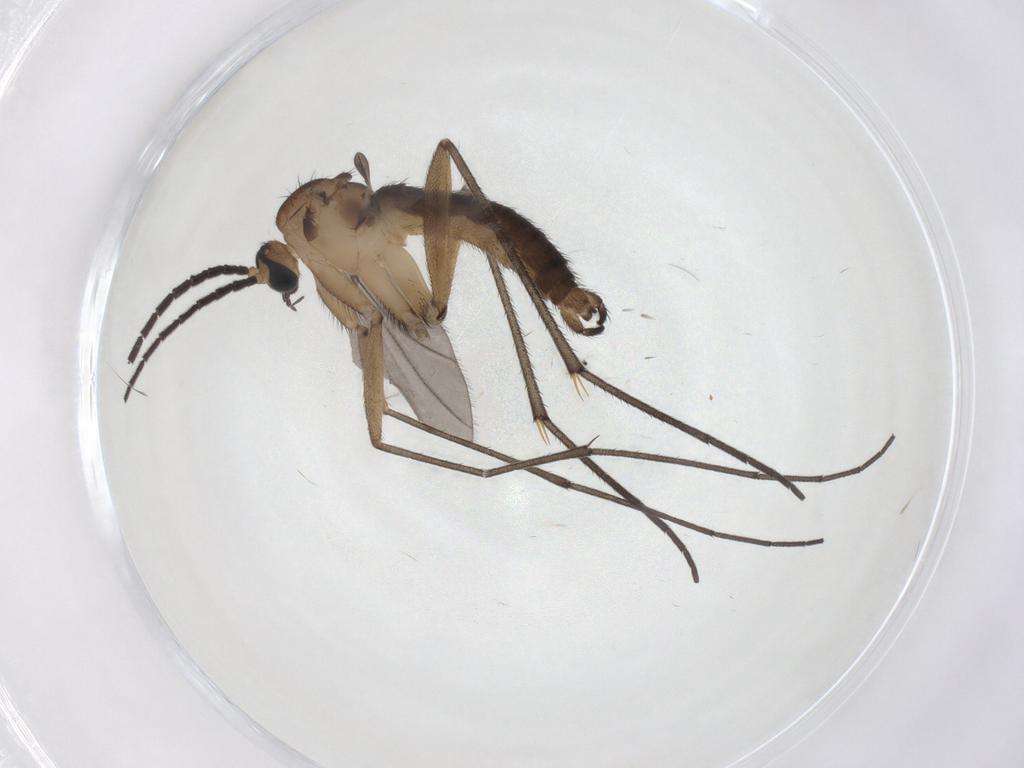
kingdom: Animalia
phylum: Arthropoda
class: Insecta
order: Diptera
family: Sciaridae
